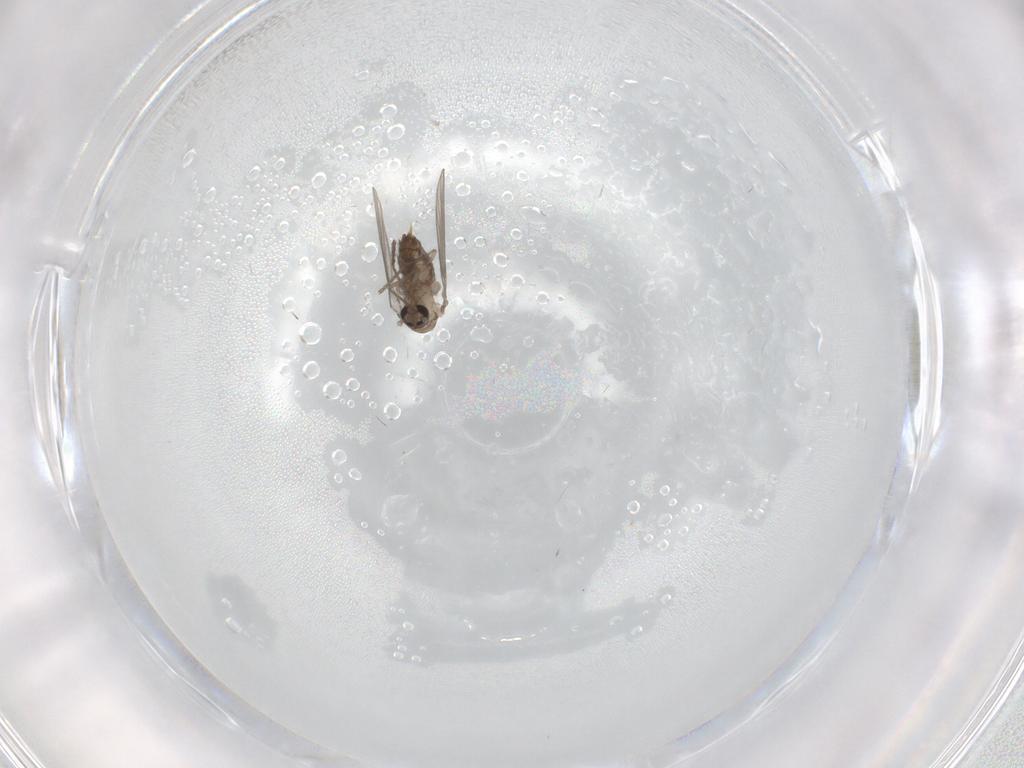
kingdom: Animalia
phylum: Arthropoda
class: Insecta
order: Diptera
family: Psychodidae
